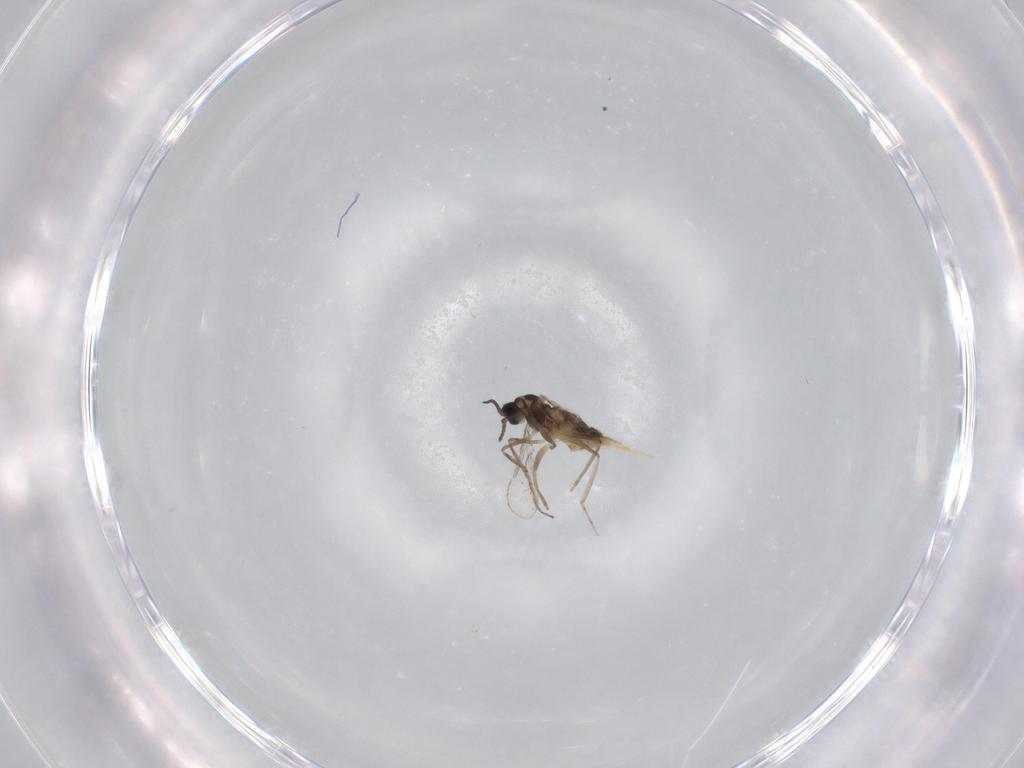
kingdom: Animalia
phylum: Arthropoda
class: Insecta
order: Diptera
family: Cecidomyiidae
